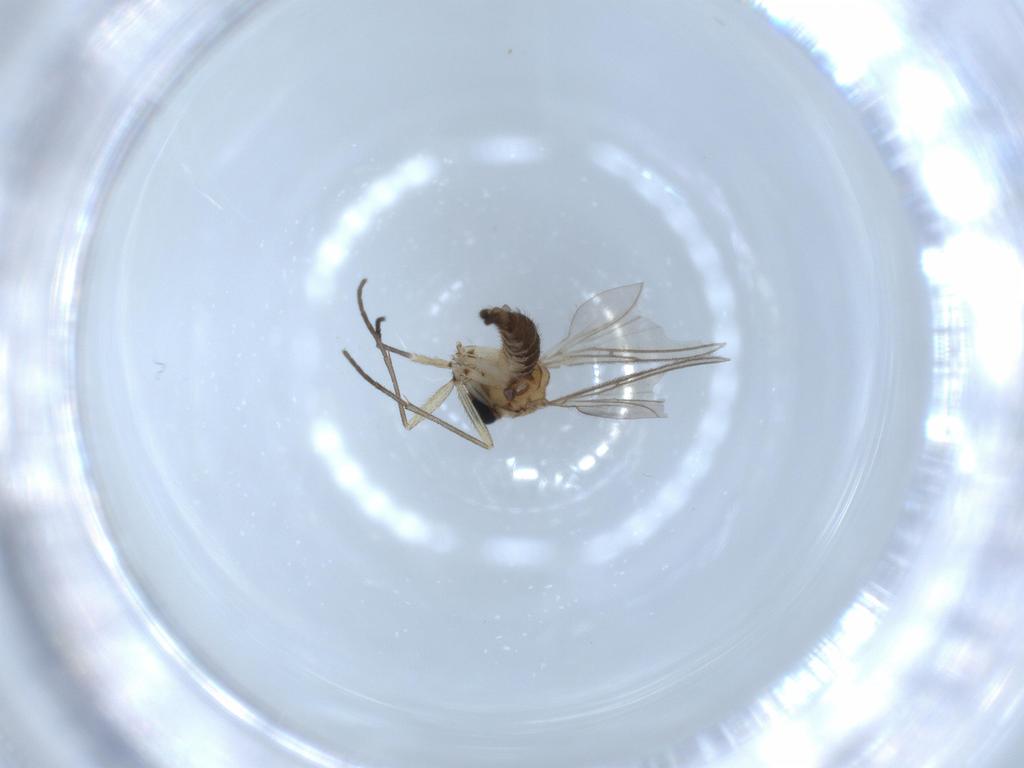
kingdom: Animalia
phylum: Arthropoda
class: Insecta
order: Diptera
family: Sciaridae
